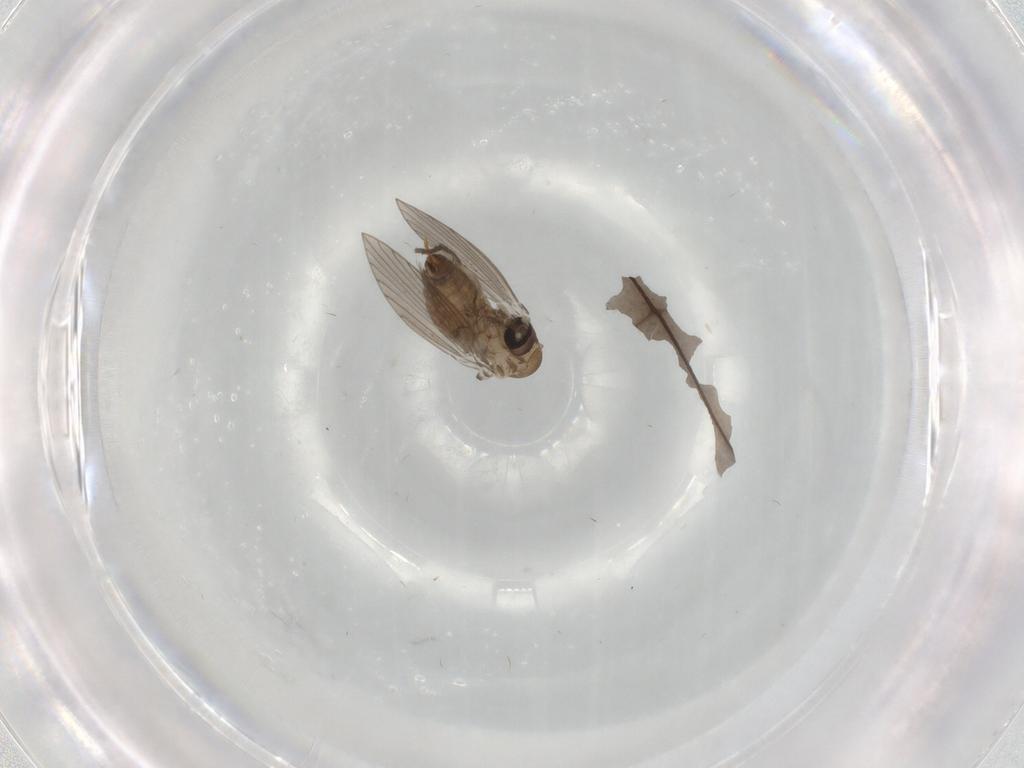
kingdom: Animalia
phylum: Arthropoda
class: Insecta
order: Diptera
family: Psychodidae
